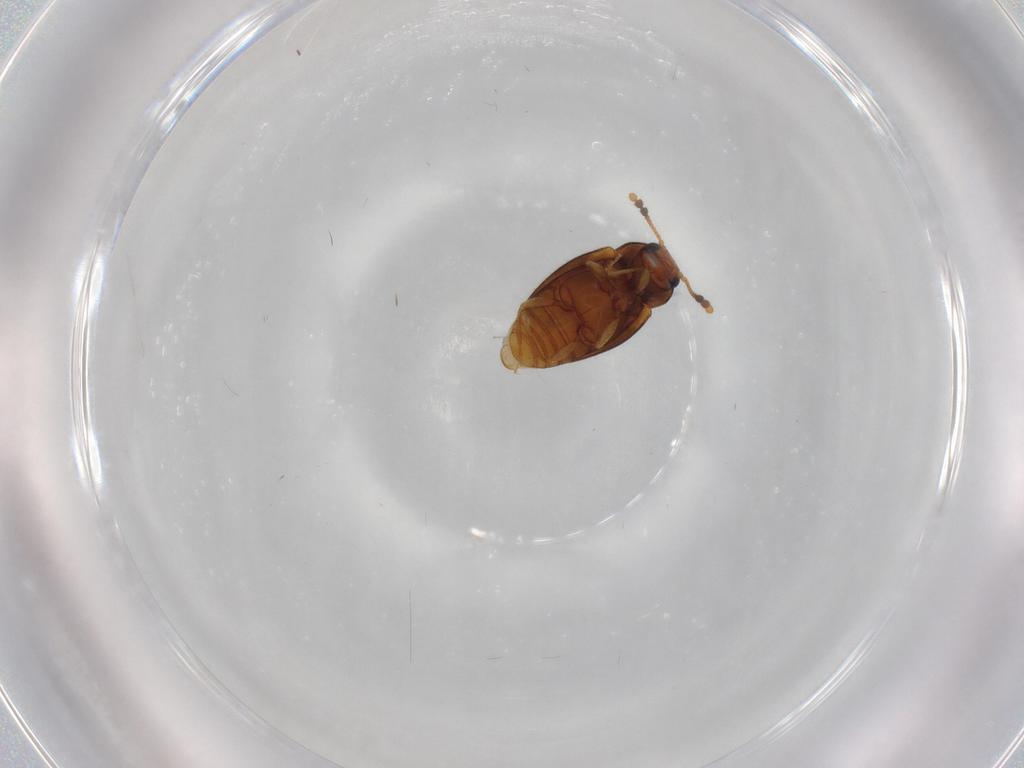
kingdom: Animalia
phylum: Arthropoda
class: Insecta
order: Coleoptera
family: Erotylidae
